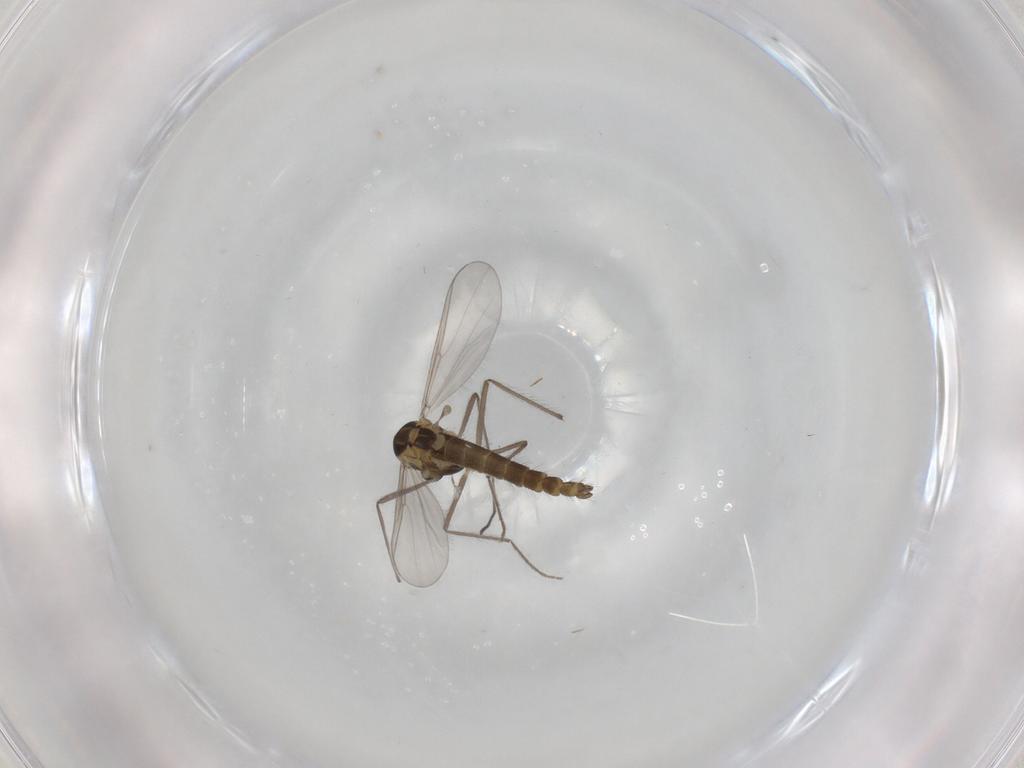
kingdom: Animalia
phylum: Arthropoda
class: Insecta
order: Diptera
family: Chironomidae
